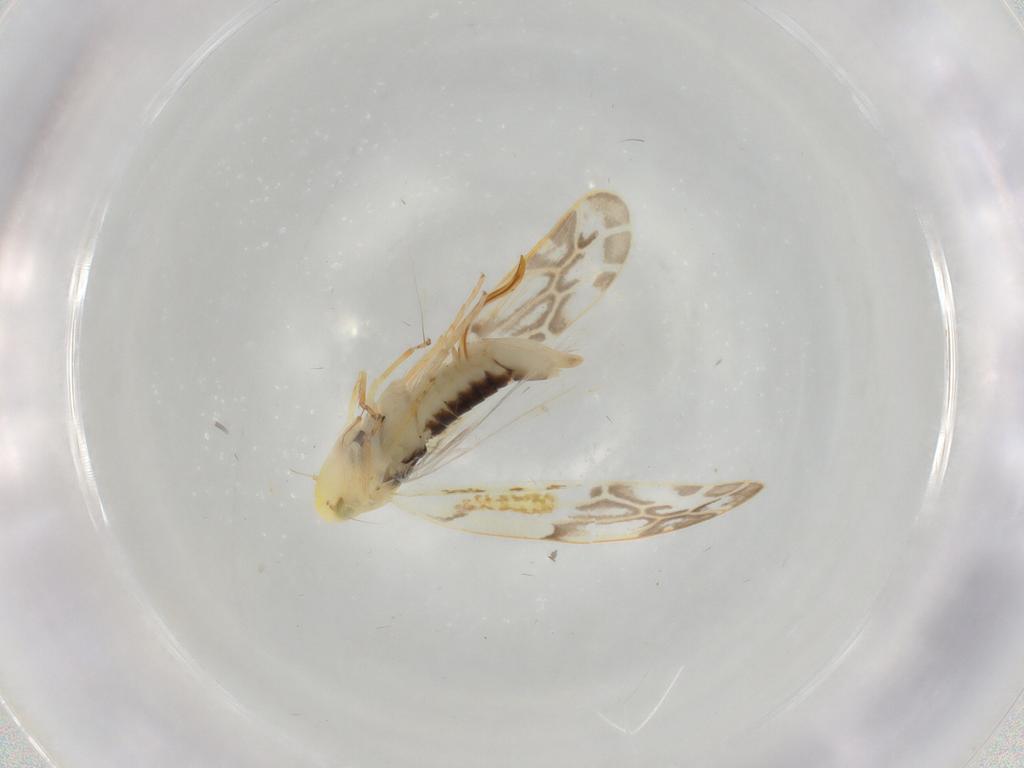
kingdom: Animalia
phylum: Arthropoda
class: Insecta
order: Hemiptera
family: Cicadellidae
